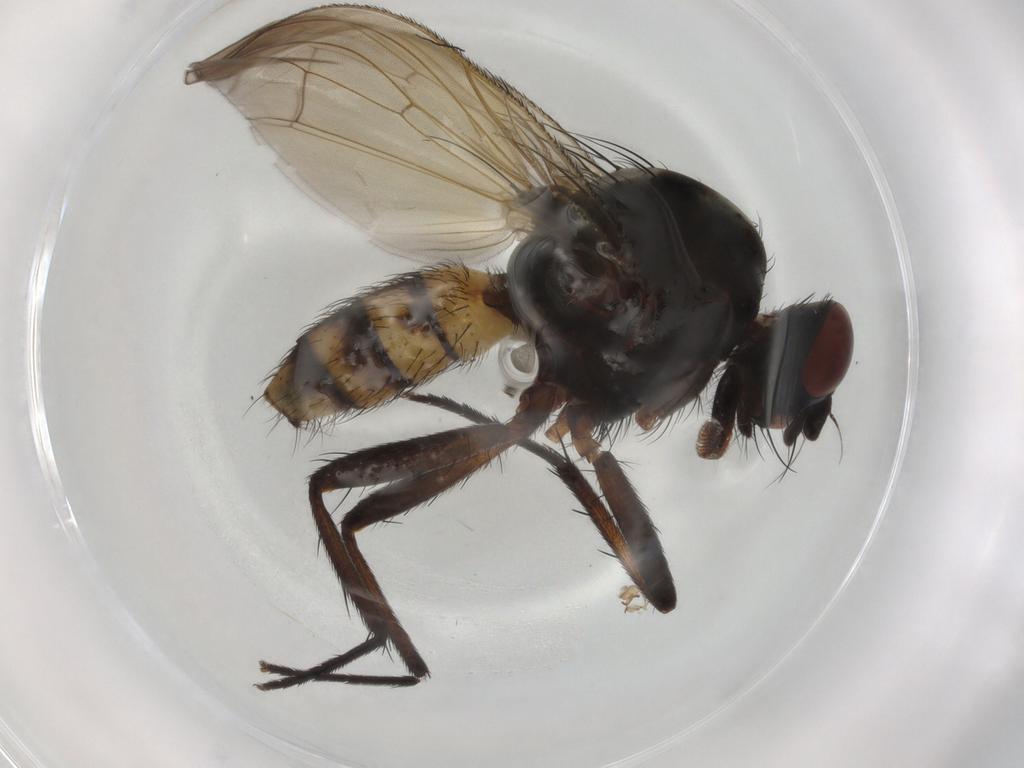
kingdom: Animalia
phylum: Arthropoda
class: Insecta
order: Diptera
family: Anthomyiidae
